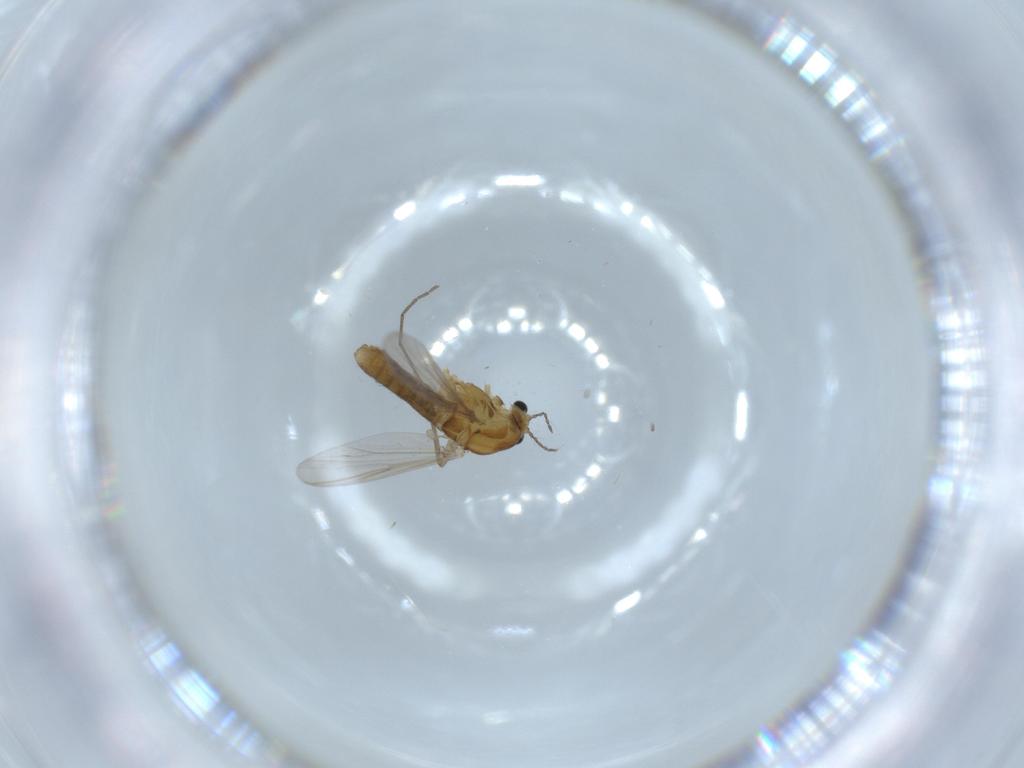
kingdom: Animalia
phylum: Arthropoda
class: Insecta
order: Diptera
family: Chironomidae
